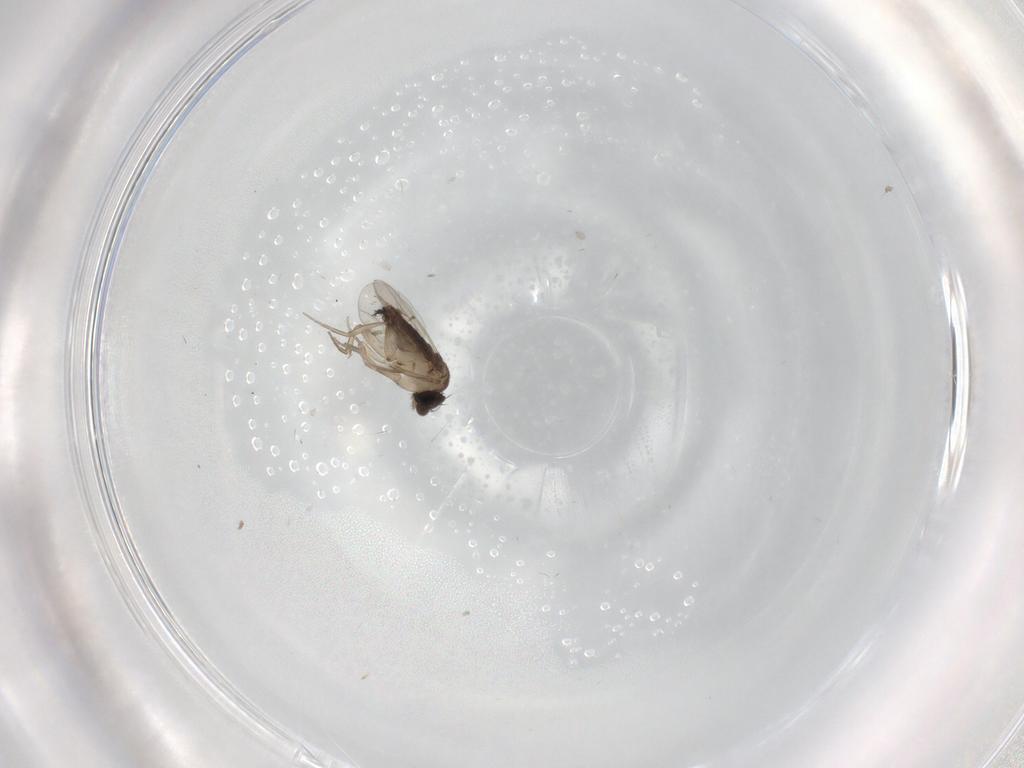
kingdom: Animalia
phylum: Arthropoda
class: Insecta
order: Diptera
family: Phoridae
